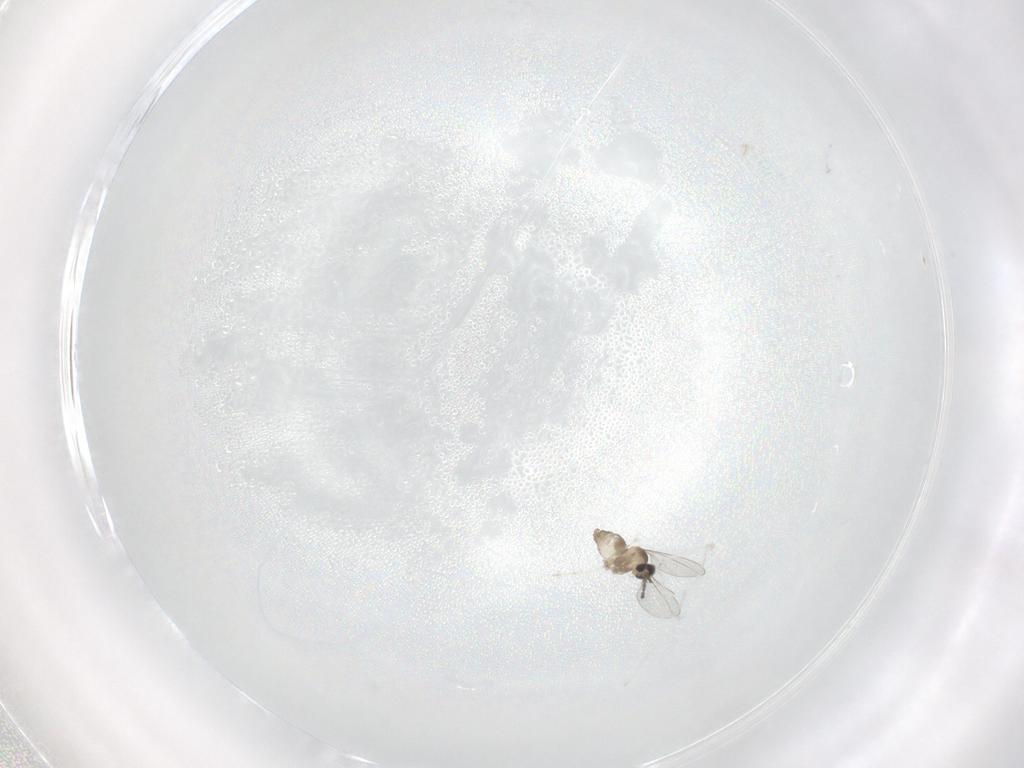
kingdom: Animalia
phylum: Arthropoda
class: Insecta
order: Diptera
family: Cecidomyiidae
